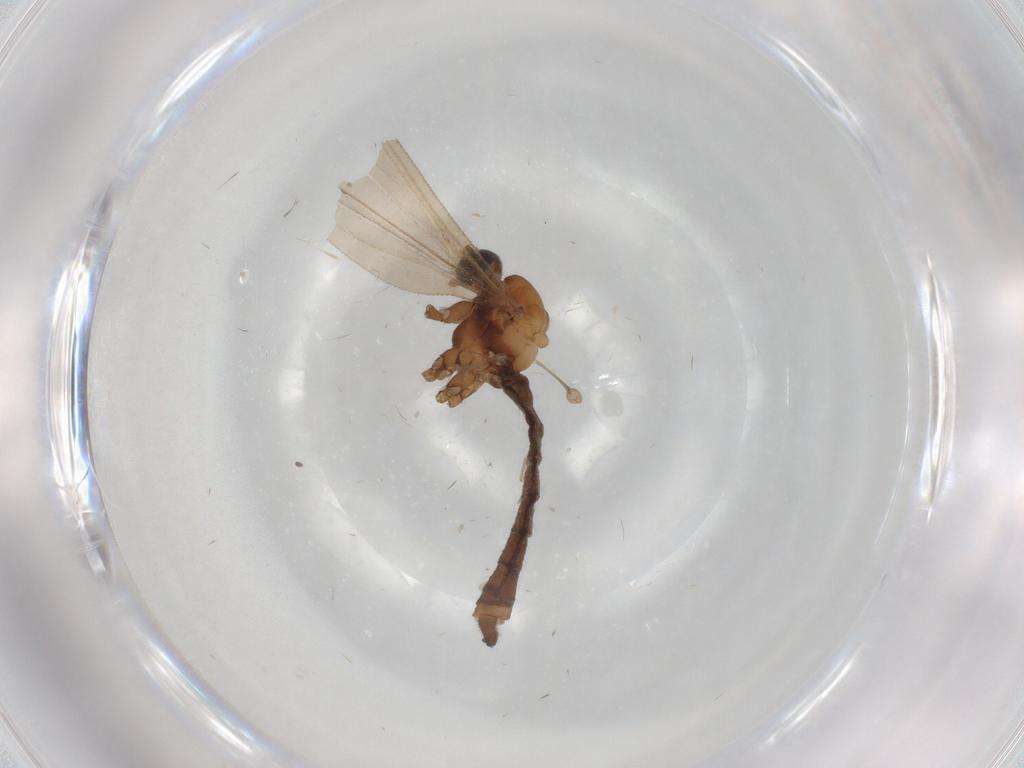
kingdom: Animalia
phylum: Arthropoda
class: Insecta
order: Diptera
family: Limoniidae
